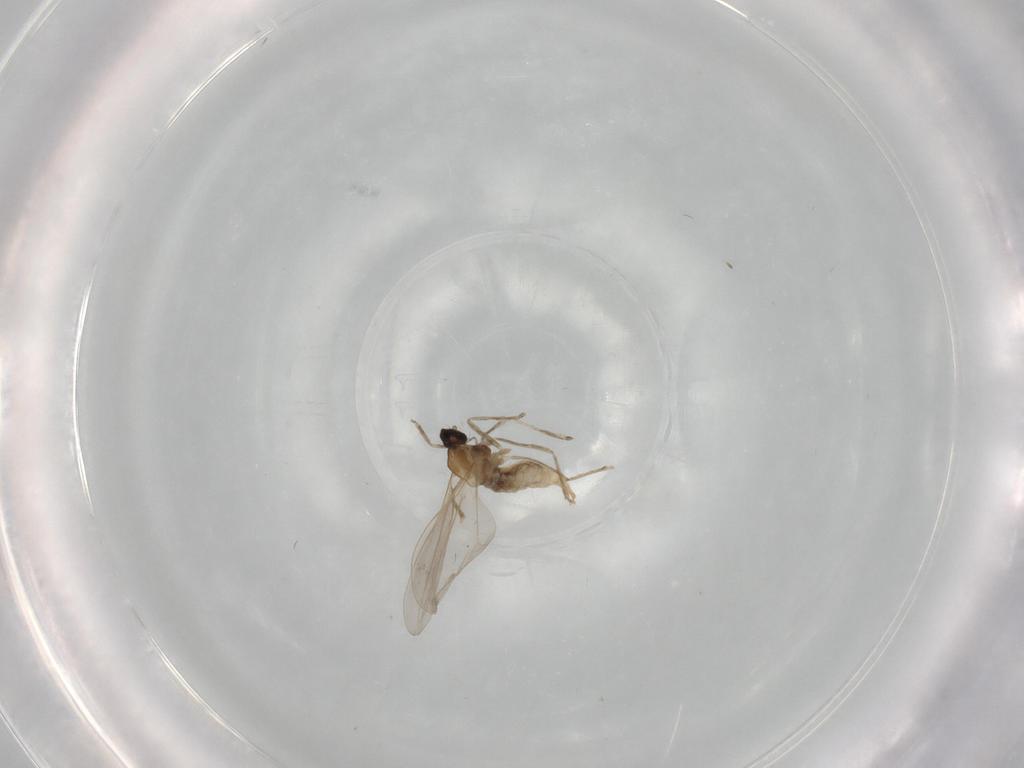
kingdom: Animalia
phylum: Arthropoda
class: Insecta
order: Diptera
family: Cecidomyiidae
